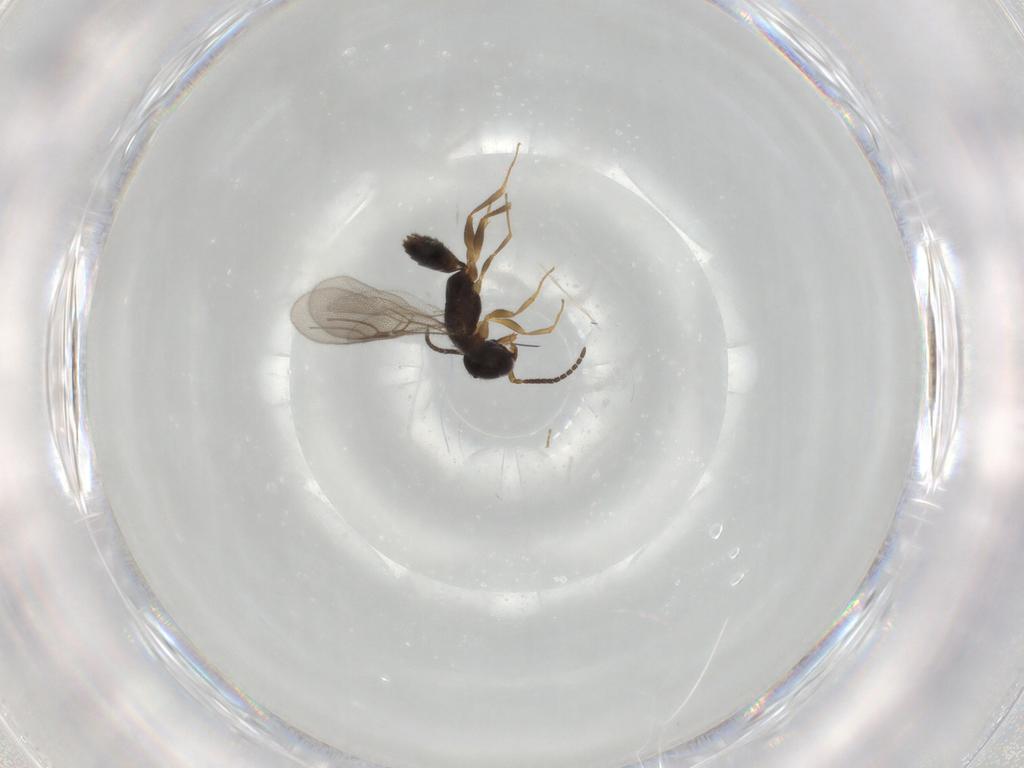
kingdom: Animalia
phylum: Arthropoda
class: Insecta
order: Hymenoptera
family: Bethylidae
